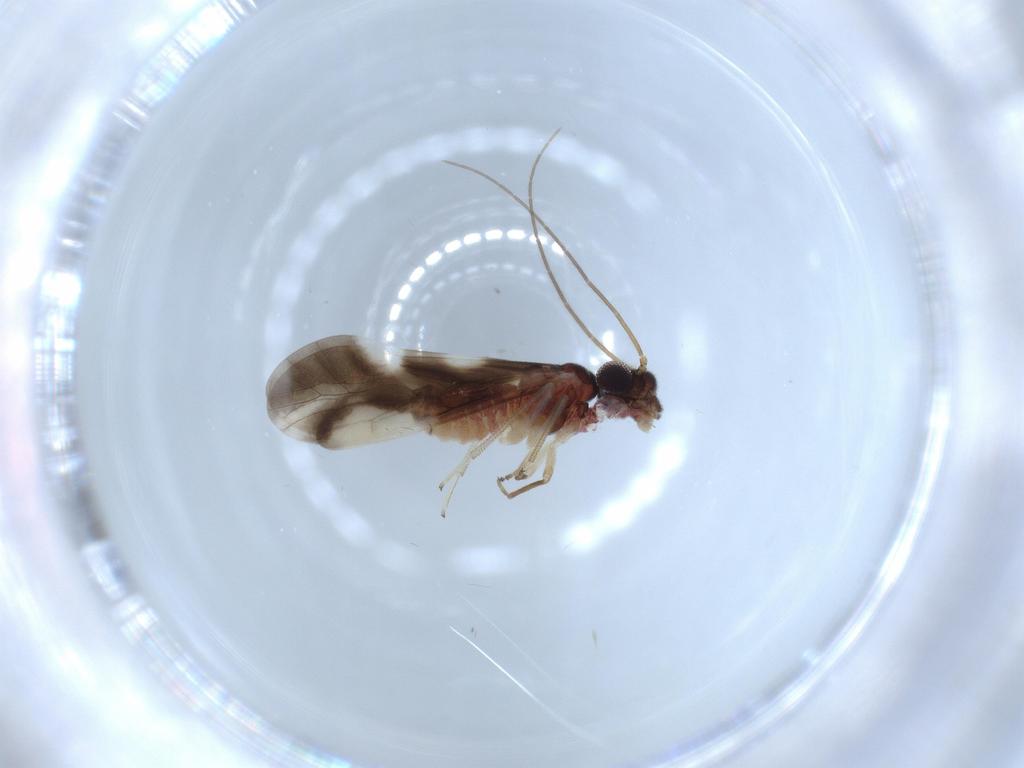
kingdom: Animalia
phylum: Arthropoda
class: Insecta
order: Psocodea
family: Caeciliusidae
